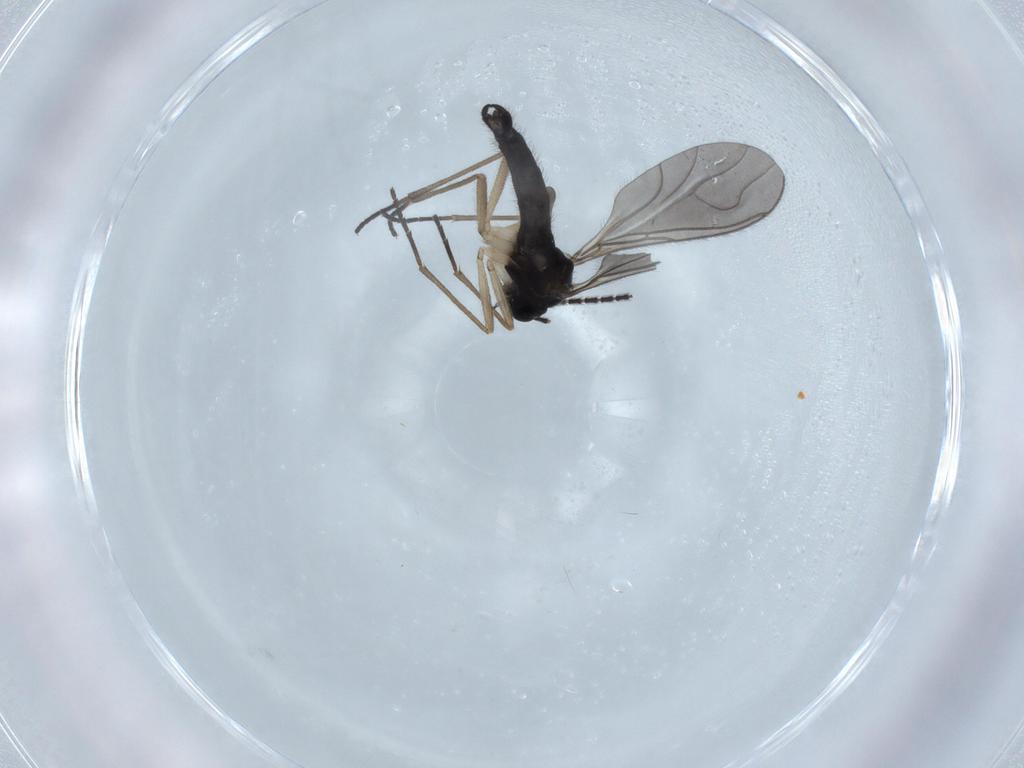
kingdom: Animalia
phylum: Arthropoda
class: Insecta
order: Diptera
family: Sciaridae
